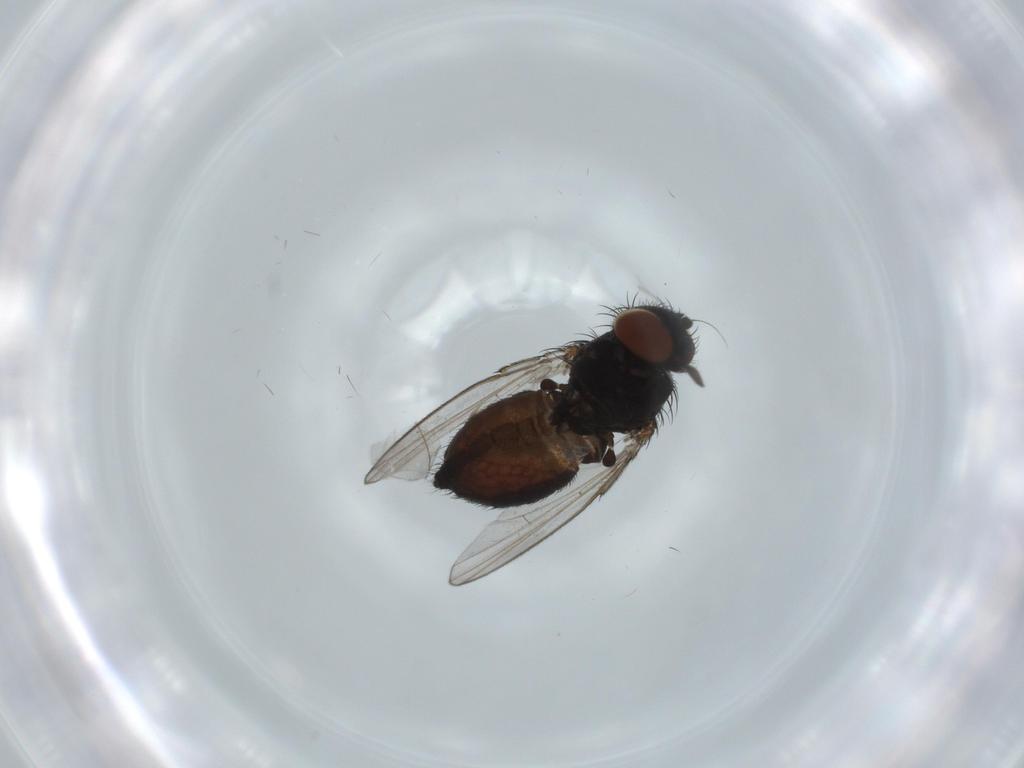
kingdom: Animalia
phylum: Arthropoda
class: Insecta
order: Diptera
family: Milichiidae
